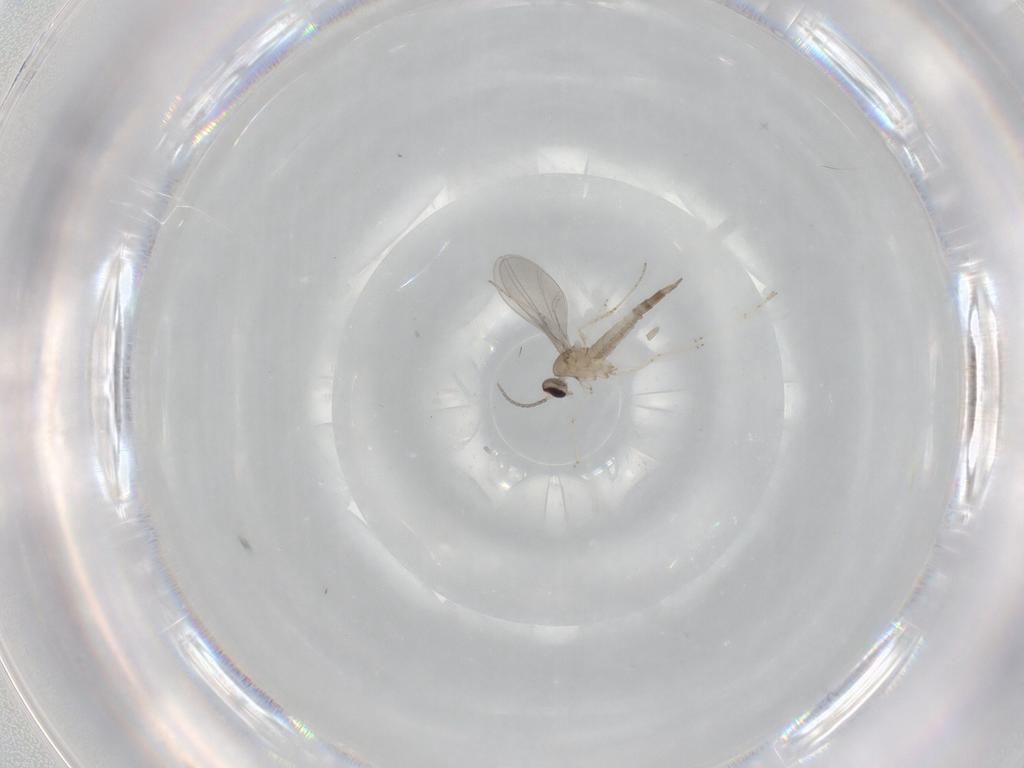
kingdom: Animalia
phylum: Arthropoda
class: Insecta
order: Diptera
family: Cecidomyiidae
